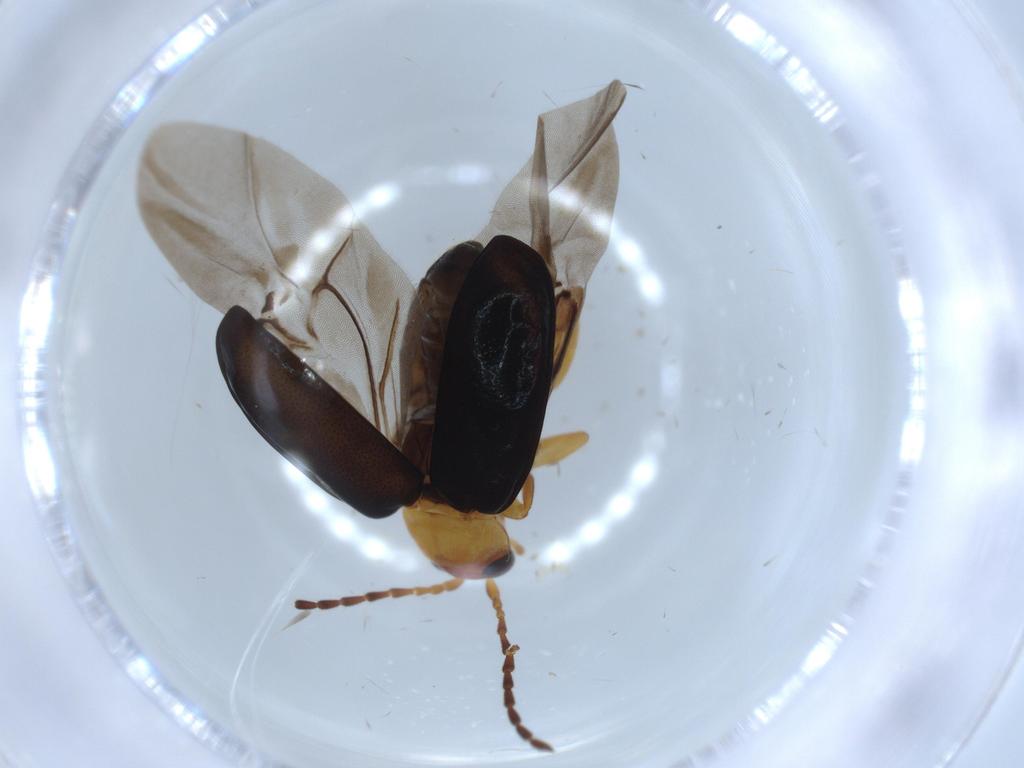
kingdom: Animalia
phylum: Arthropoda
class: Insecta
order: Coleoptera
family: Chrysomelidae
